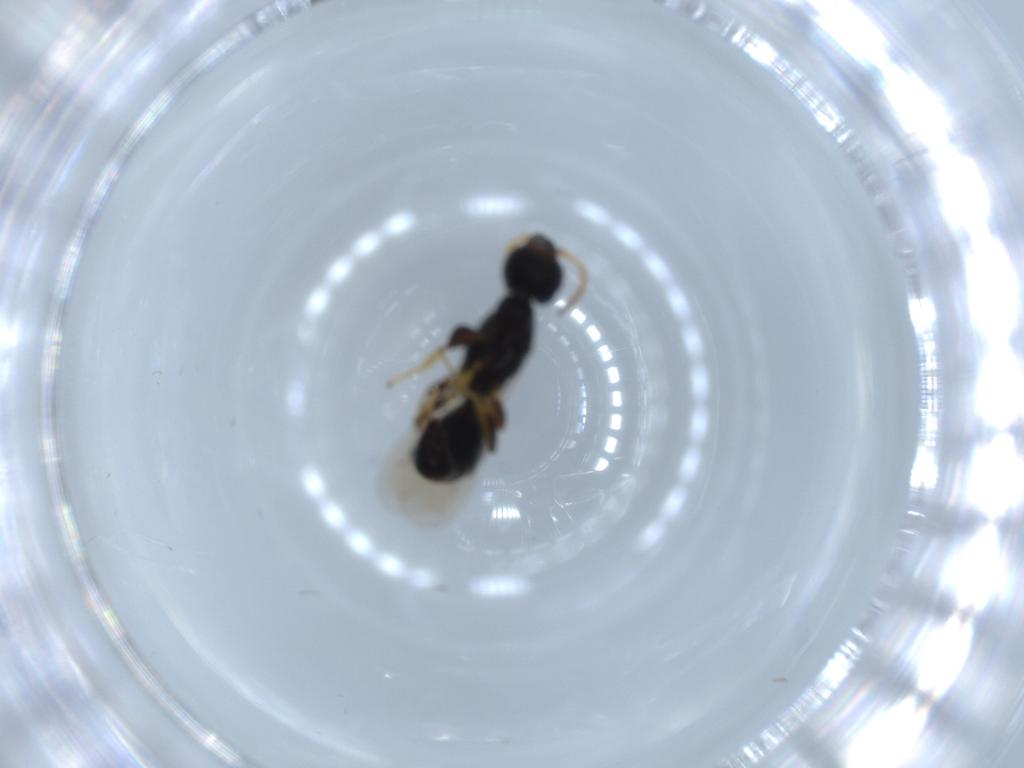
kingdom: Animalia
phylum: Arthropoda
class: Insecta
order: Hymenoptera
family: Bethylidae
